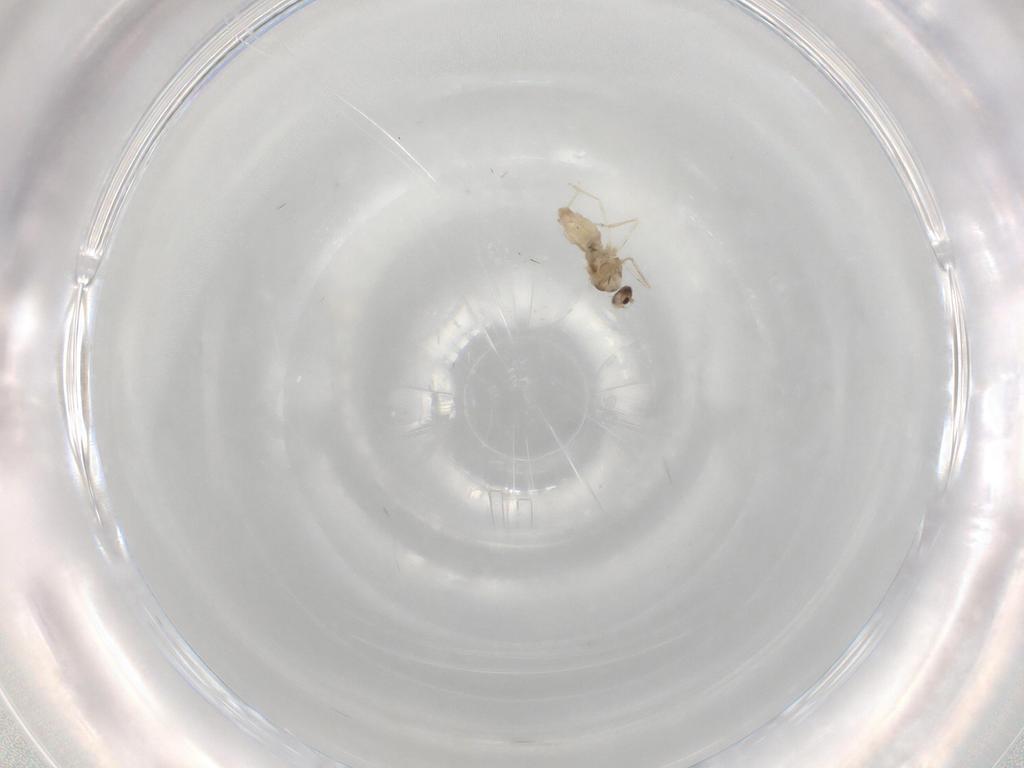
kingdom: Animalia
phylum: Arthropoda
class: Insecta
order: Diptera
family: Cecidomyiidae
